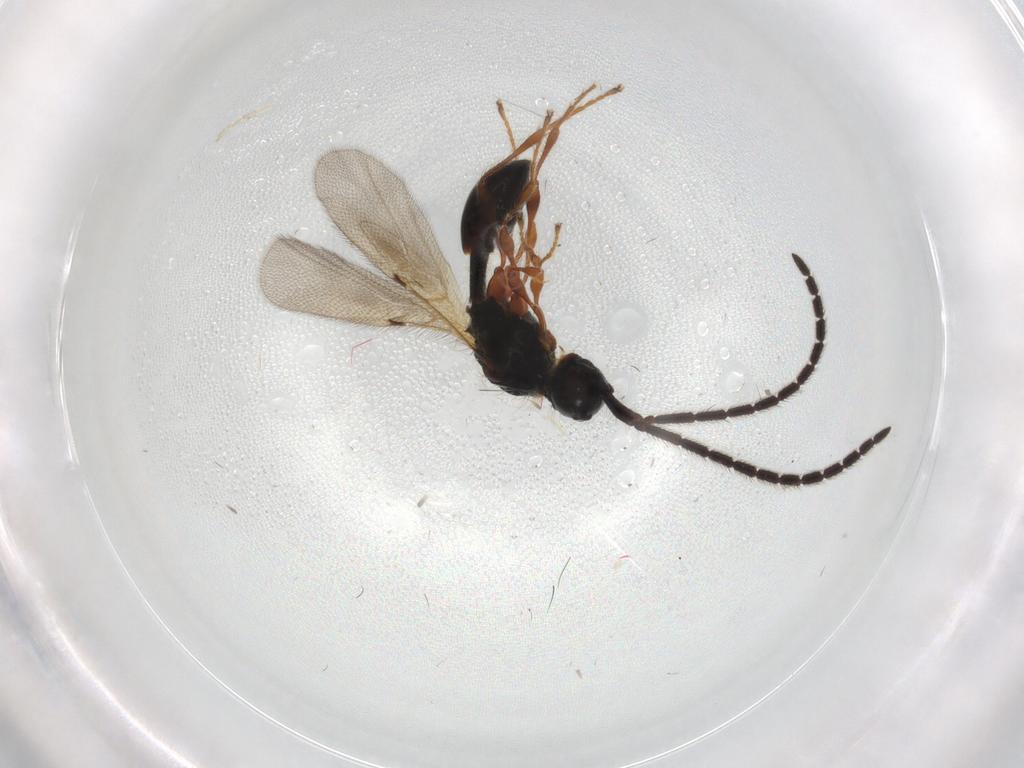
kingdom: Animalia
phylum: Arthropoda
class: Insecta
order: Hymenoptera
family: Diapriidae
